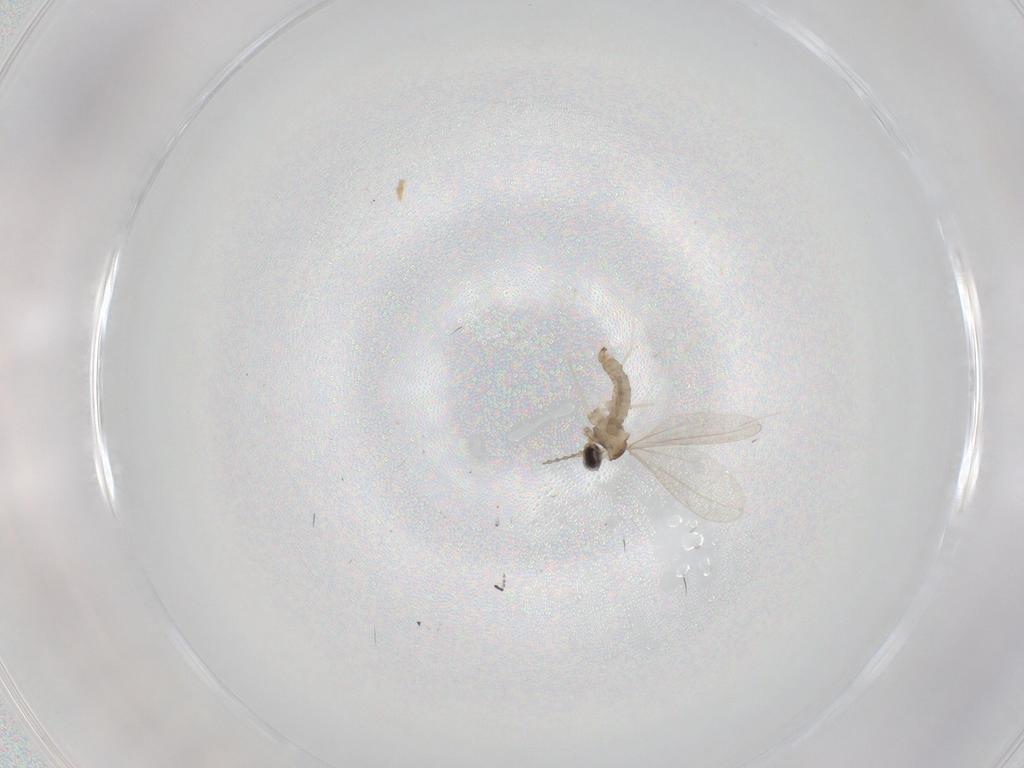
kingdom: Animalia
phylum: Arthropoda
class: Insecta
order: Diptera
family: Cecidomyiidae
